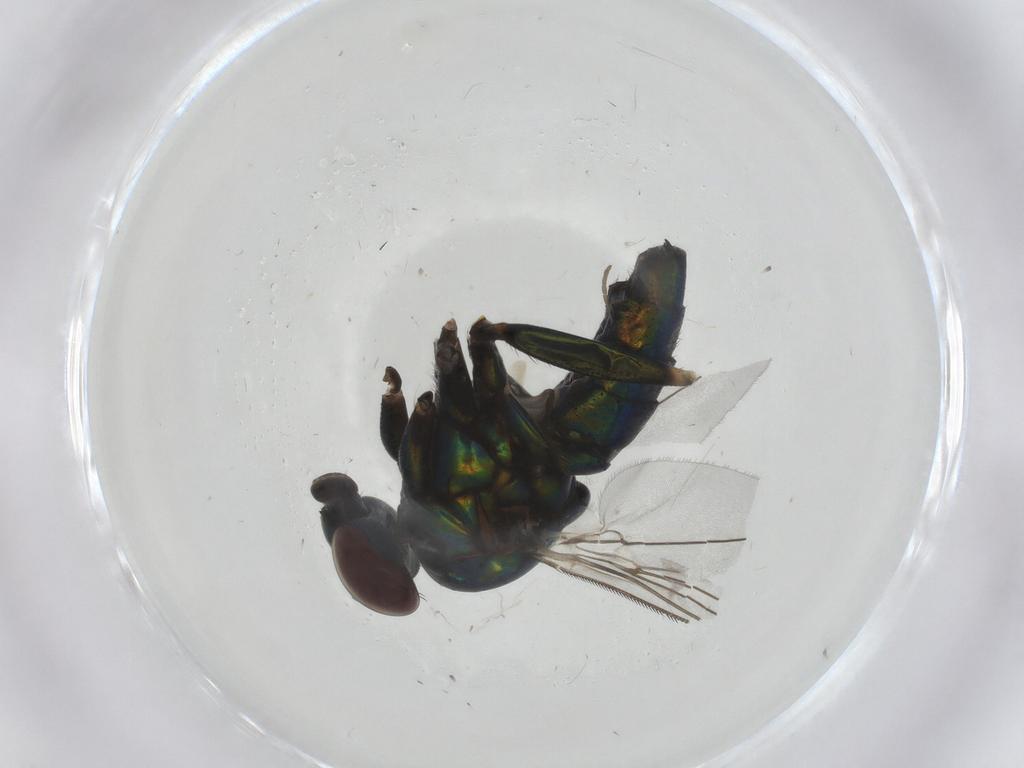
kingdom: Animalia
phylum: Arthropoda
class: Insecta
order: Diptera
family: Dolichopodidae
